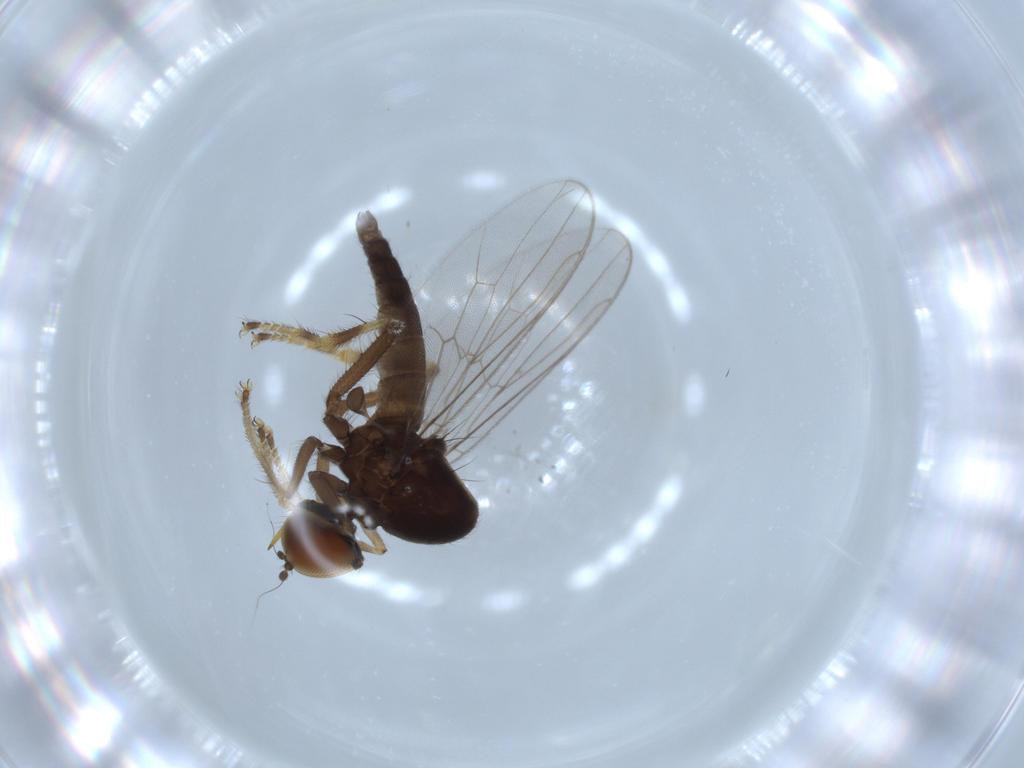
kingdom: Animalia
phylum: Arthropoda
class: Insecta
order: Diptera
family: Hybotidae
